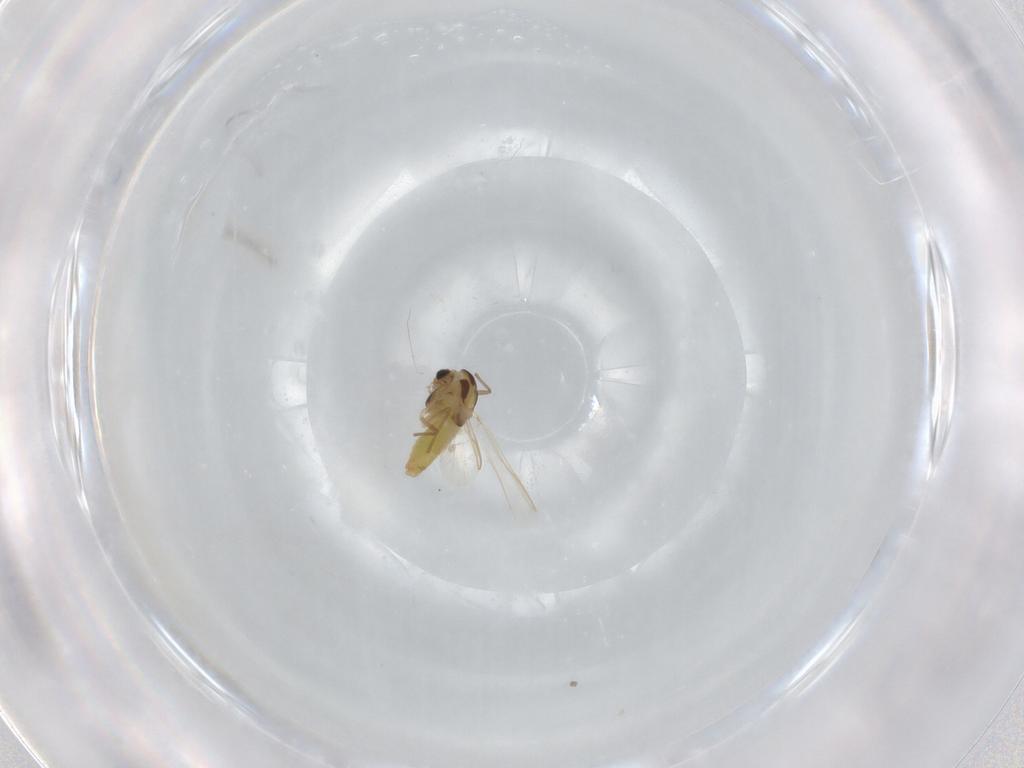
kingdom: Animalia
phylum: Arthropoda
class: Insecta
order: Diptera
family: Chironomidae
